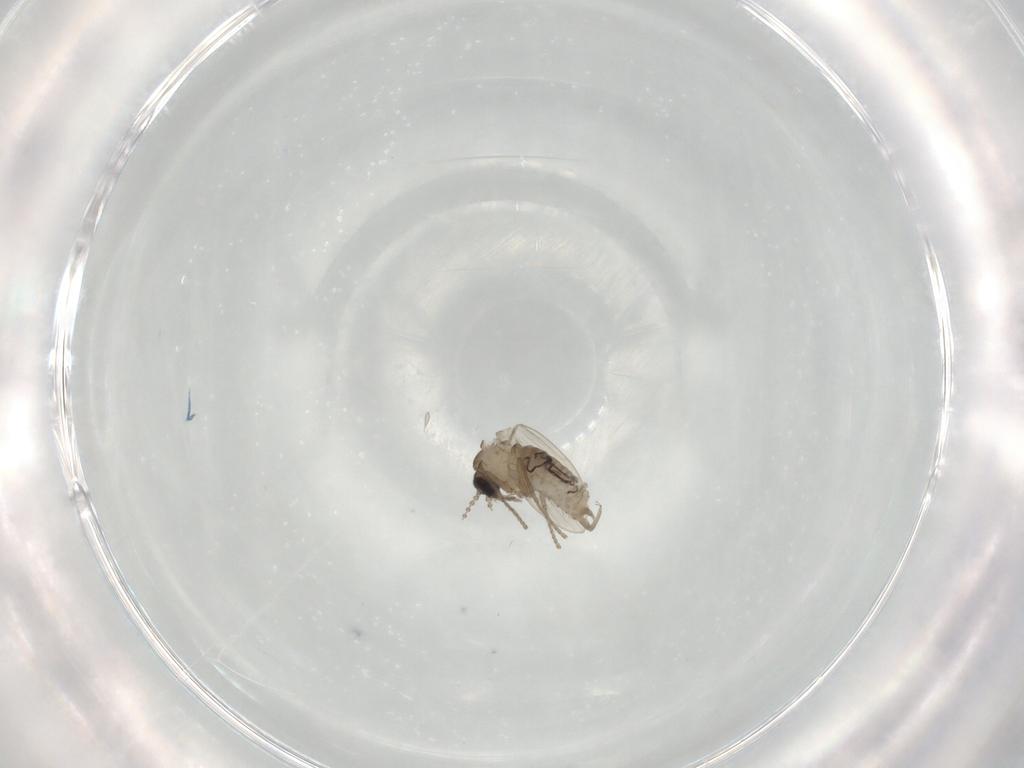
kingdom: Animalia
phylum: Arthropoda
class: Insecta
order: Diptera
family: Psychodidae
